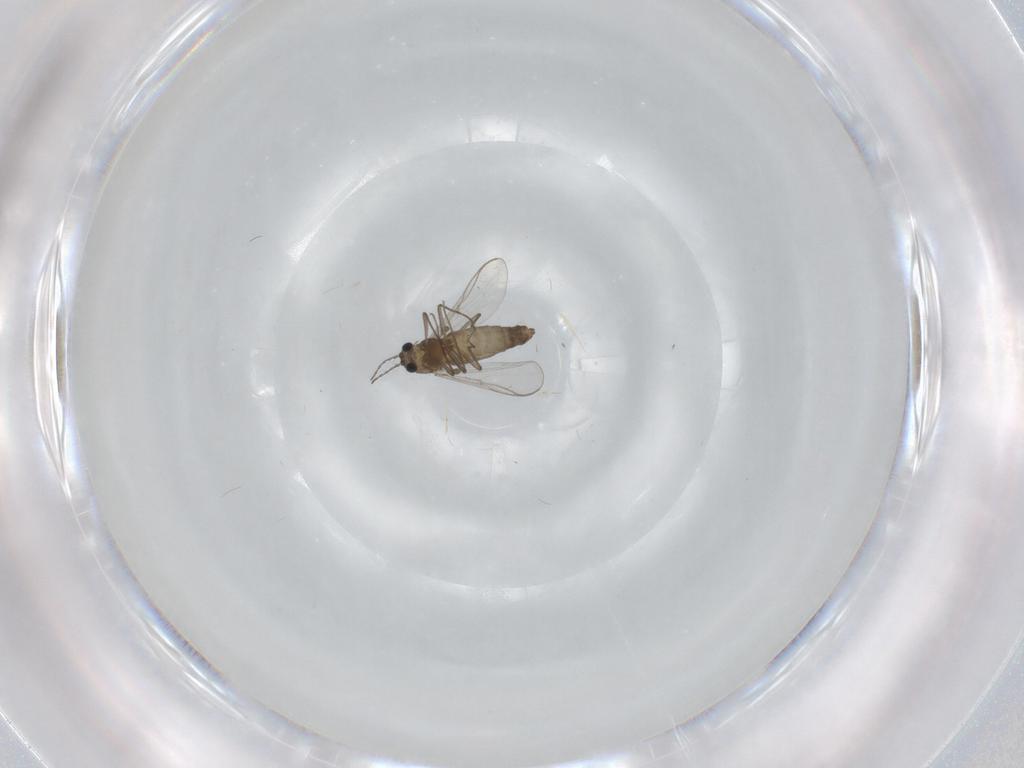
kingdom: Animalia
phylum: Arthropoda
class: Insecta
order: Diptera
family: Chironomidae
